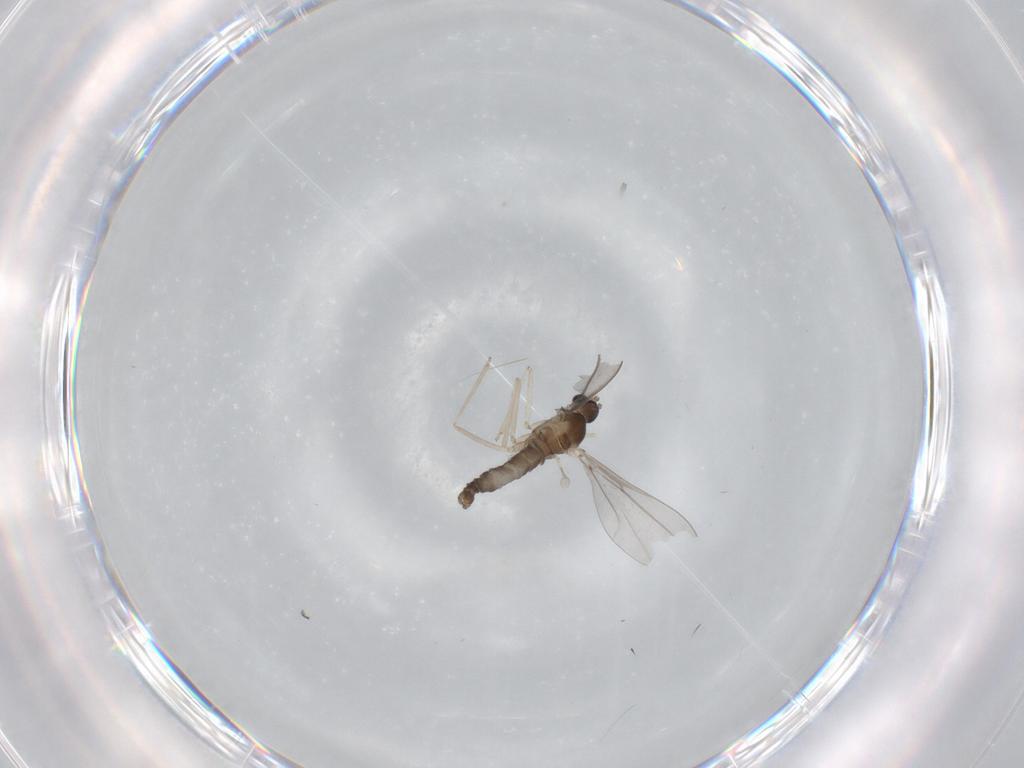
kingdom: Animalia
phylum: Arthropoda
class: Insecta
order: Diptera
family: Cecidomyiidae
